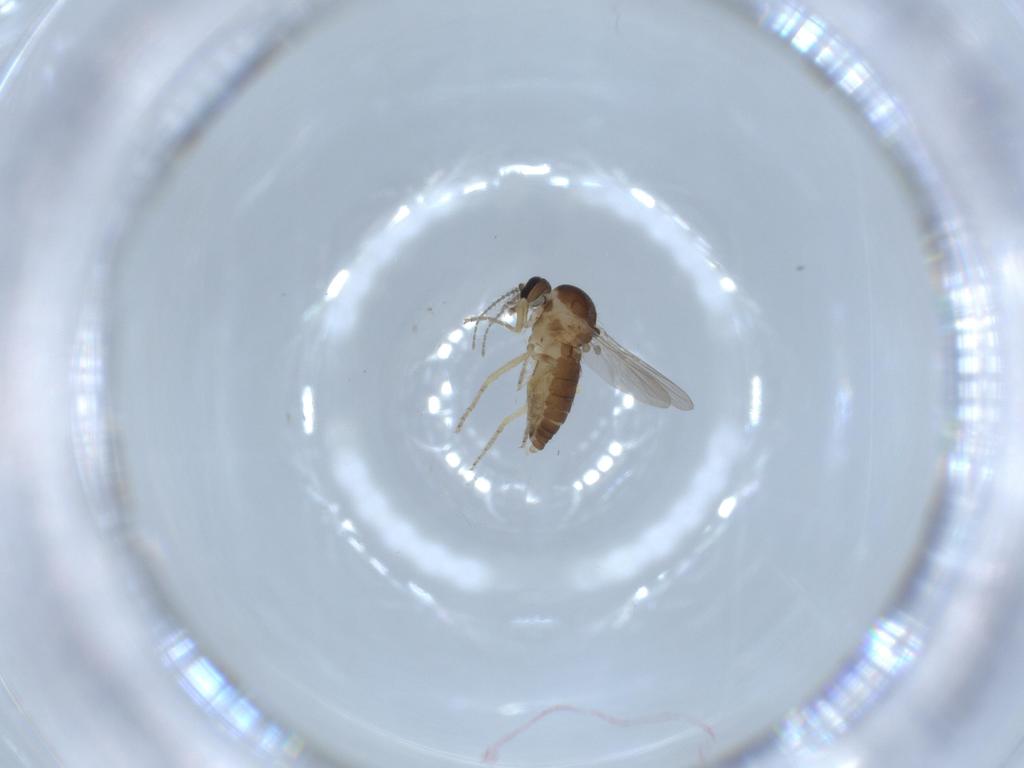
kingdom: Animalia
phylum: Arthropoda
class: Insecta
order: Diptera
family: Ceratopogonidae
